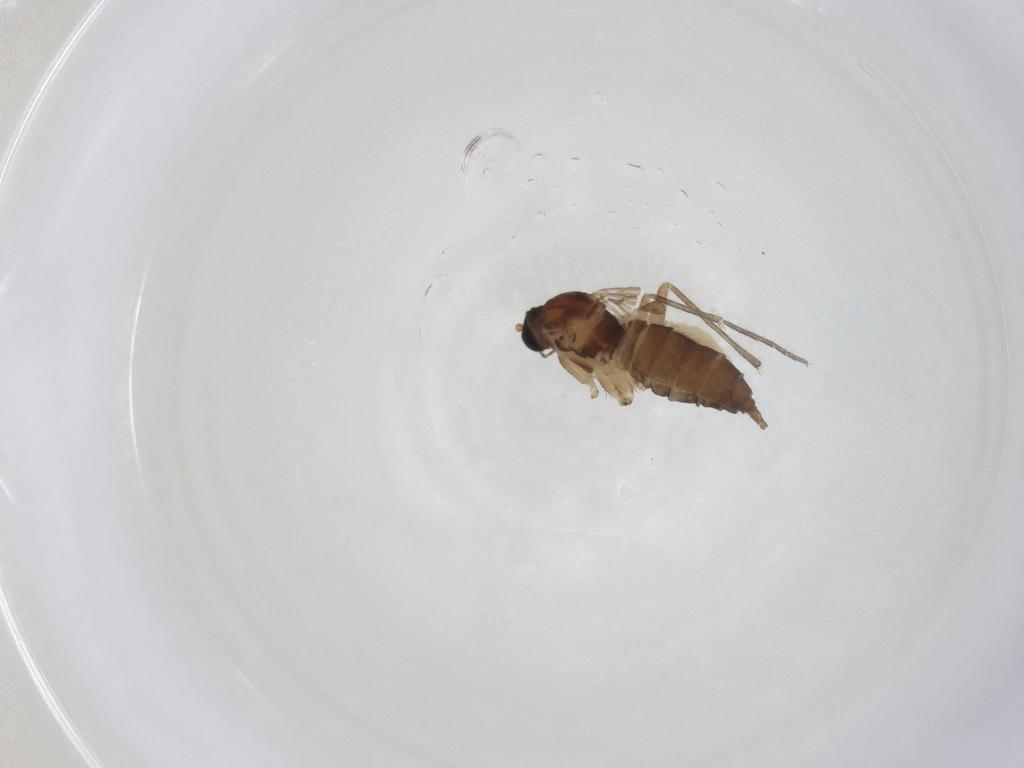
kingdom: Animalia
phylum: Arthropoda
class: Insecta
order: Diptera
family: Sciaridae
